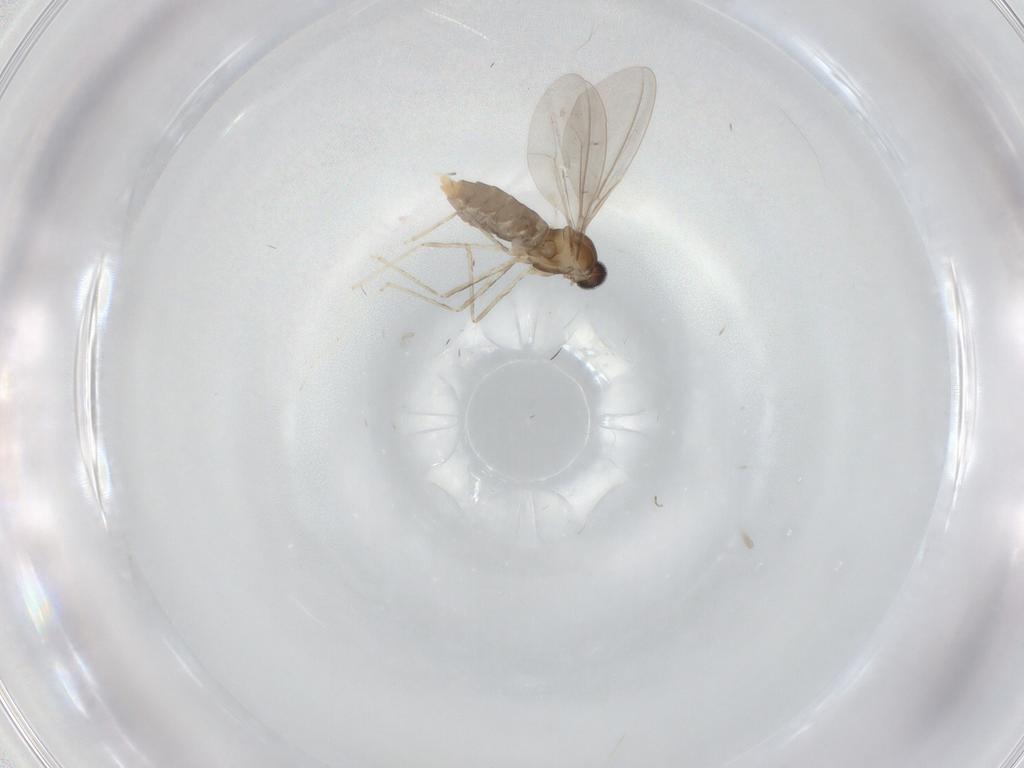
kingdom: Animalia
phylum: Arthropoda
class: Insecta
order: Diptera
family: Cecidomyiidae
